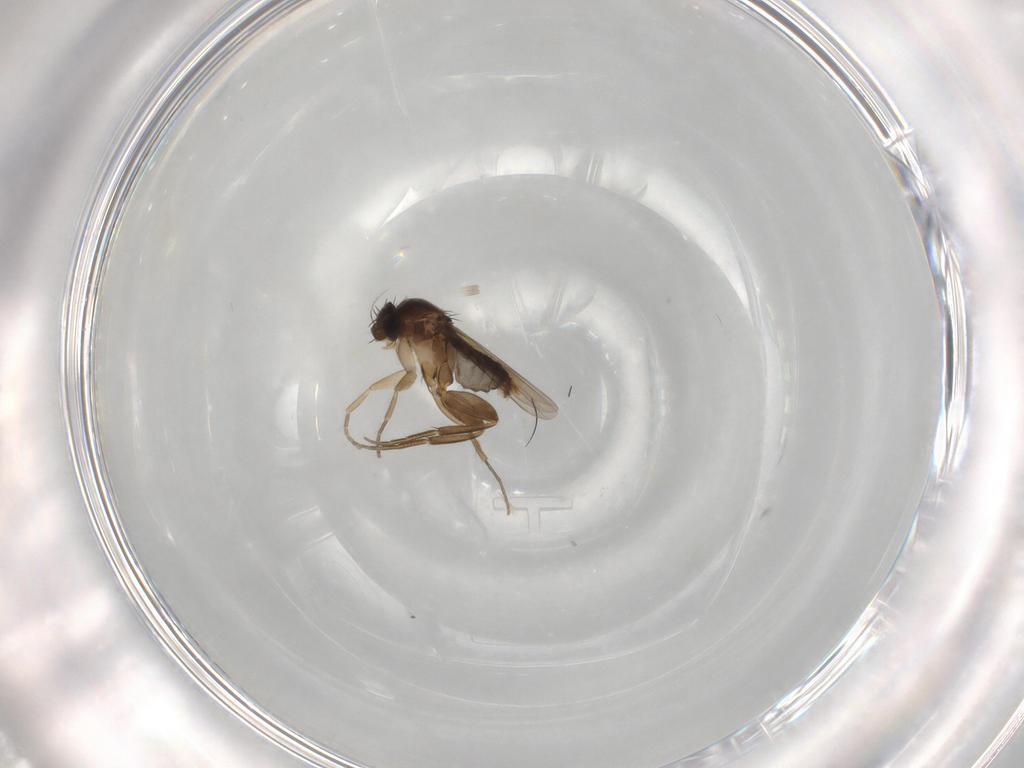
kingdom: Animalia
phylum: Arthropoda
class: Insecta
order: Diptera
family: Phoridae
